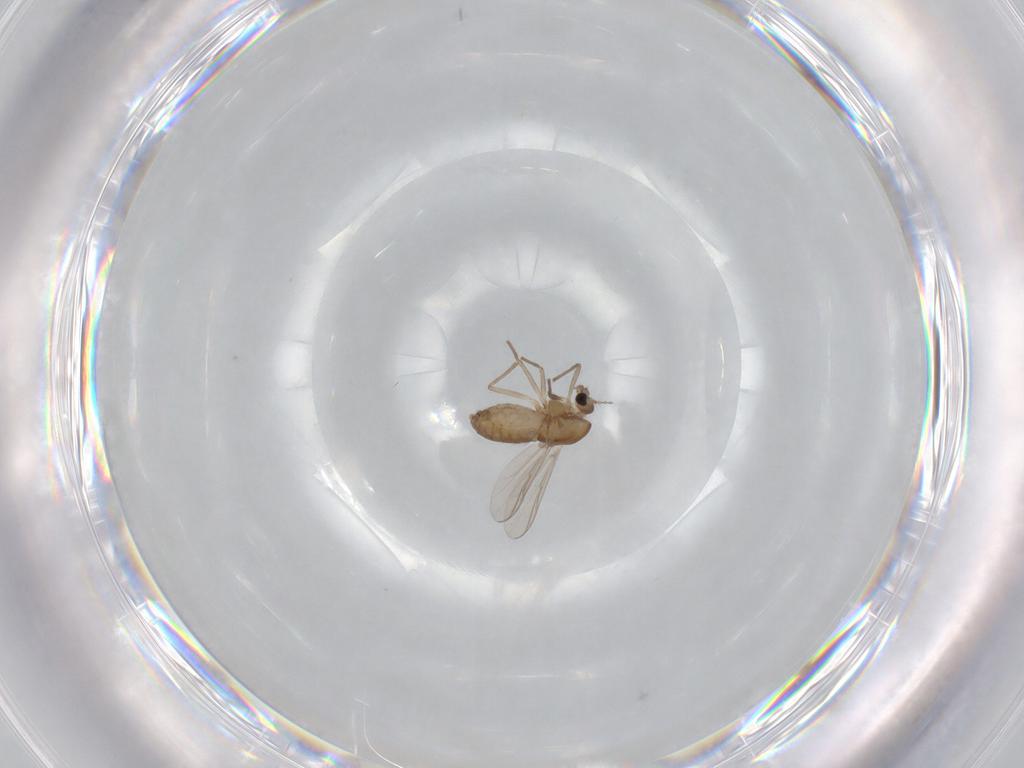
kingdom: Animalia
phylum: Arthropoda
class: Insecta
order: Diptera
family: Chironomidae
